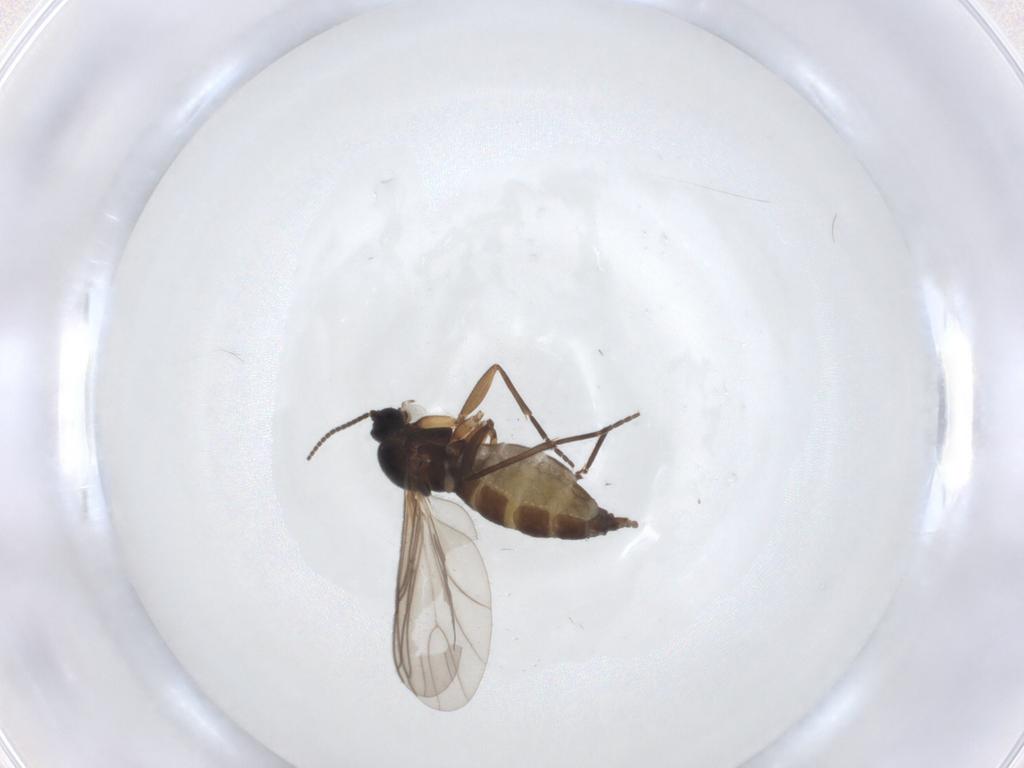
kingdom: Animalia
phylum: Arthropoda
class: Insecta
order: Diptera
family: Sciaridae
